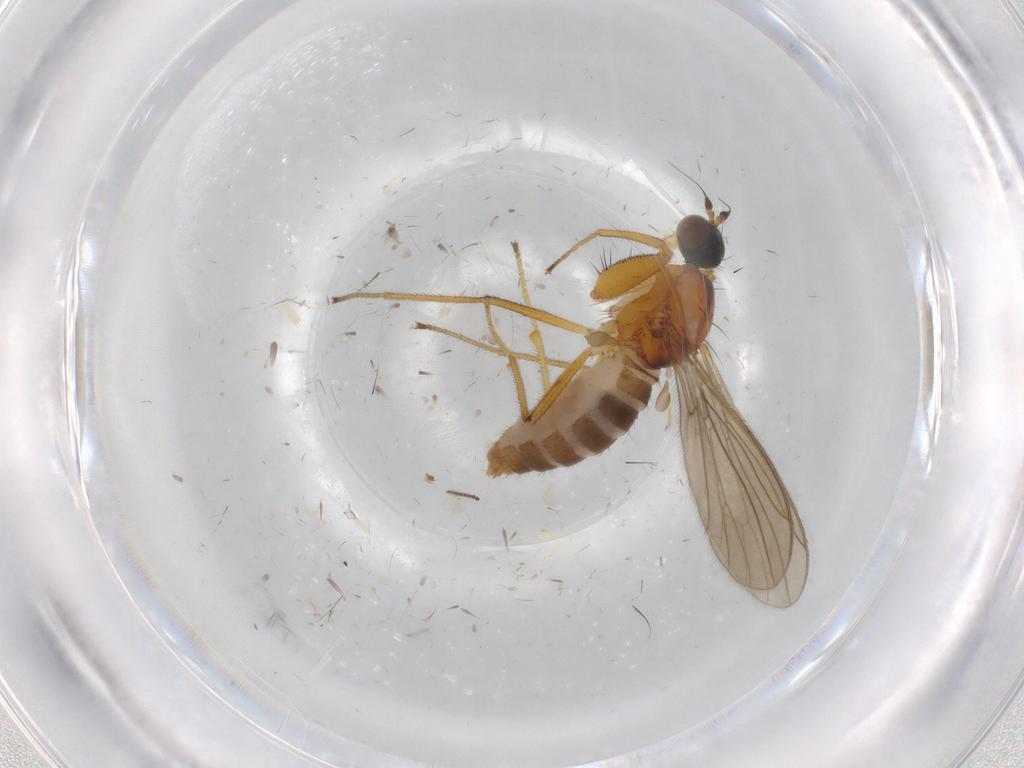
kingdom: Animalia
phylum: Arthropoda
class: Insecta
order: Diptera
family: Empididae
